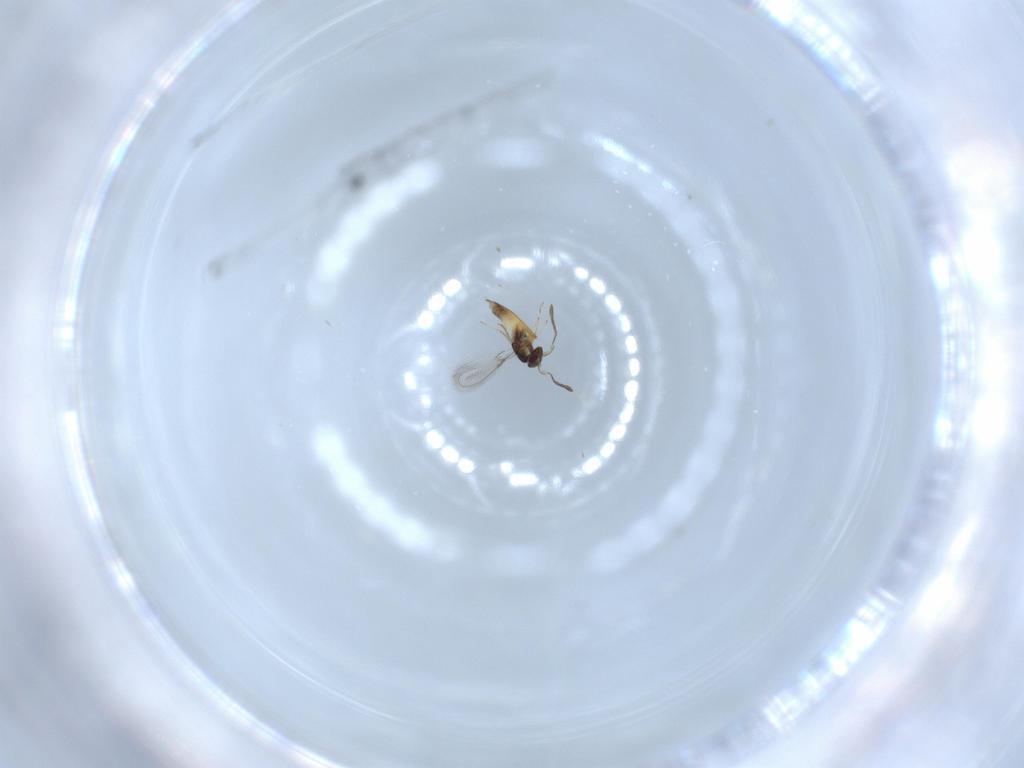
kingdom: Animalia
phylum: Arthropoda
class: Insecta
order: Hymenoptera
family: Mymaridae
